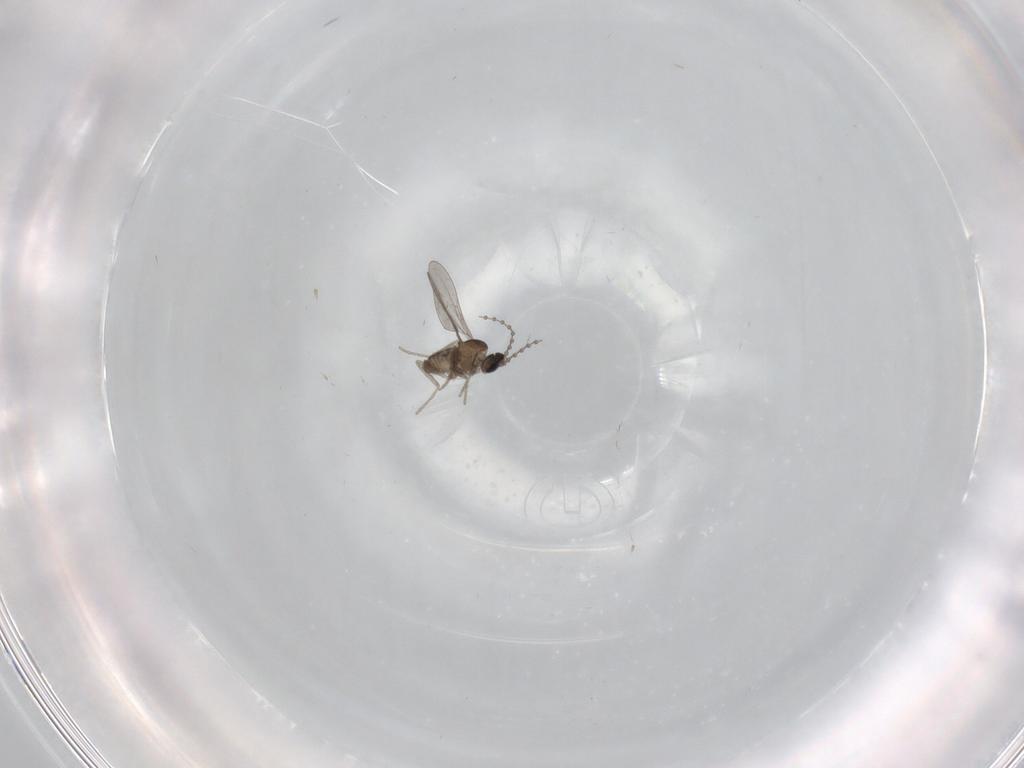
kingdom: Animalia
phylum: Arthropoda
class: Insecta
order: Diptera
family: Cecidomyiidae
